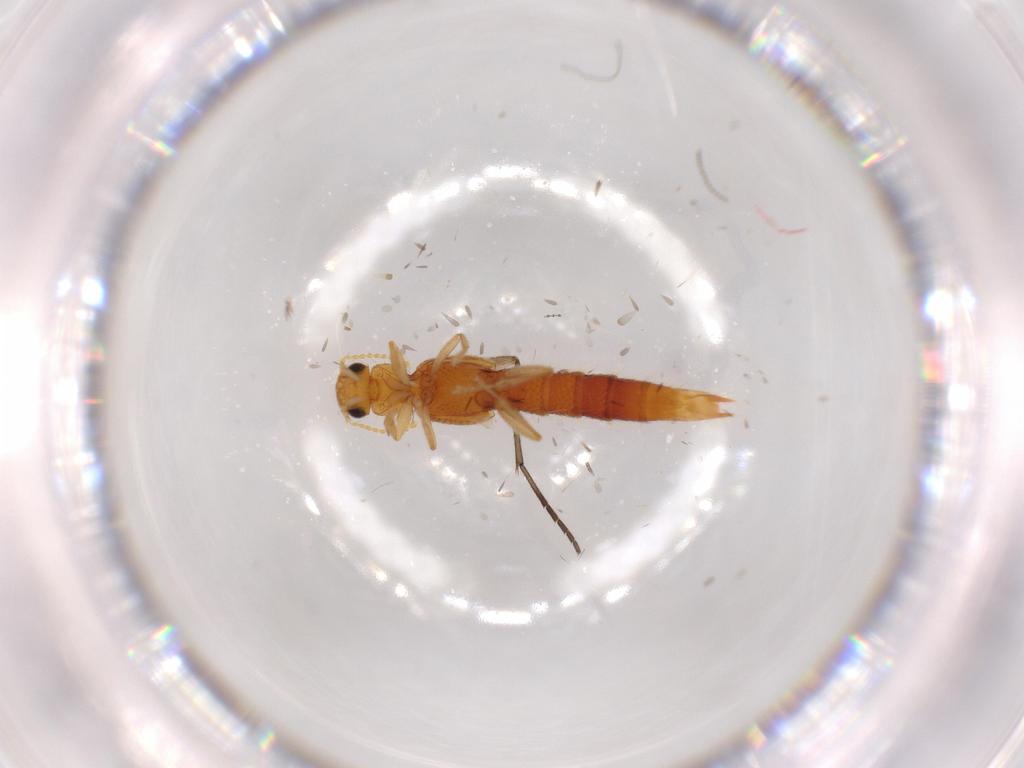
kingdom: Animalia
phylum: Arthropoda
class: Insecta
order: Coleoptera
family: Staphylinidae
